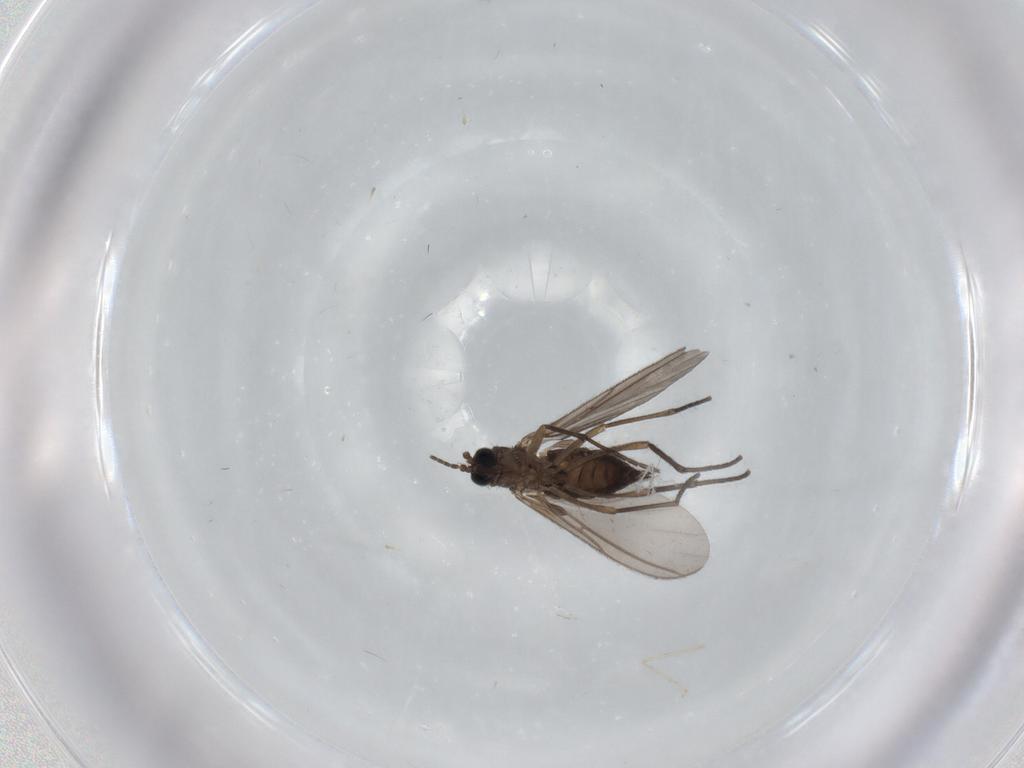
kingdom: Animalia
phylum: Arthropoda
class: Insecta
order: Diptera
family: Sciaridae
